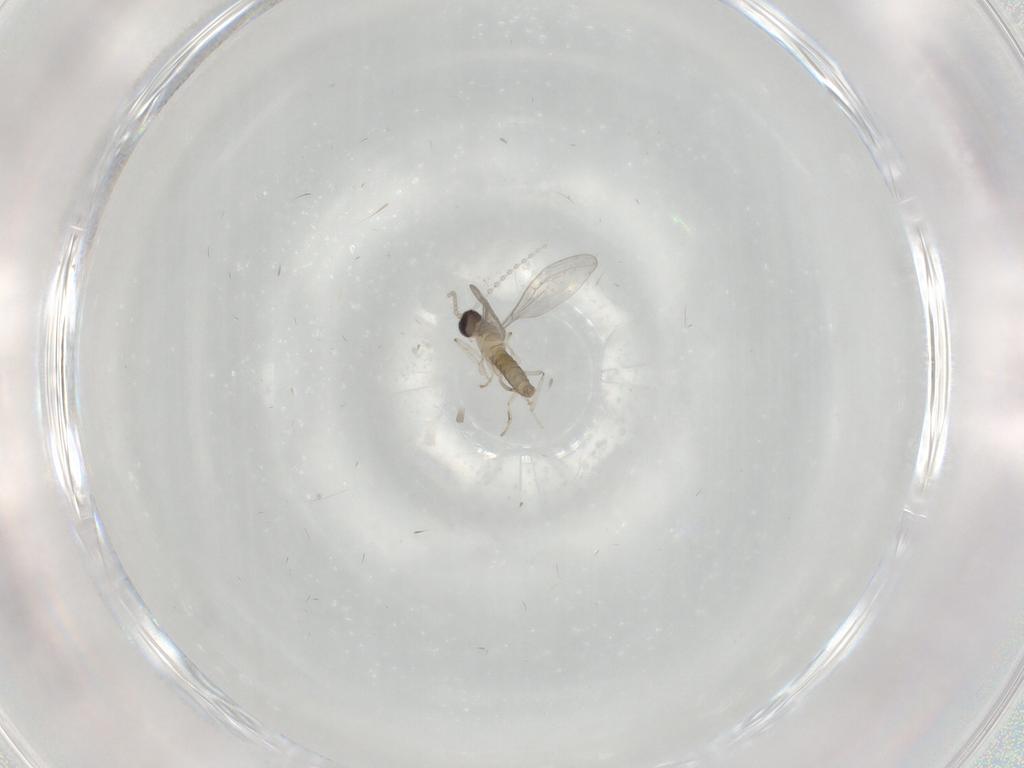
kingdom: Animalia
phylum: Arthropoda
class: Insecta
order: Diptera
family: Cecidomyiidae
